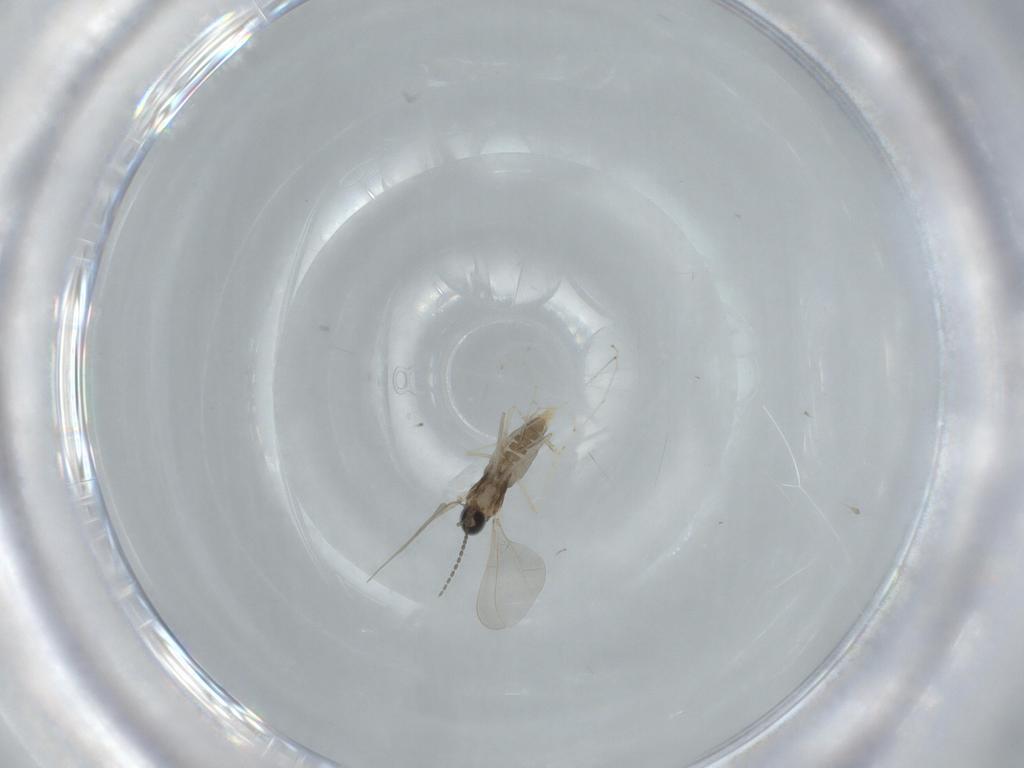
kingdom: Animalia
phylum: Arthropoda
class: Insecta
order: Diptera
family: Cecidomyiidae
